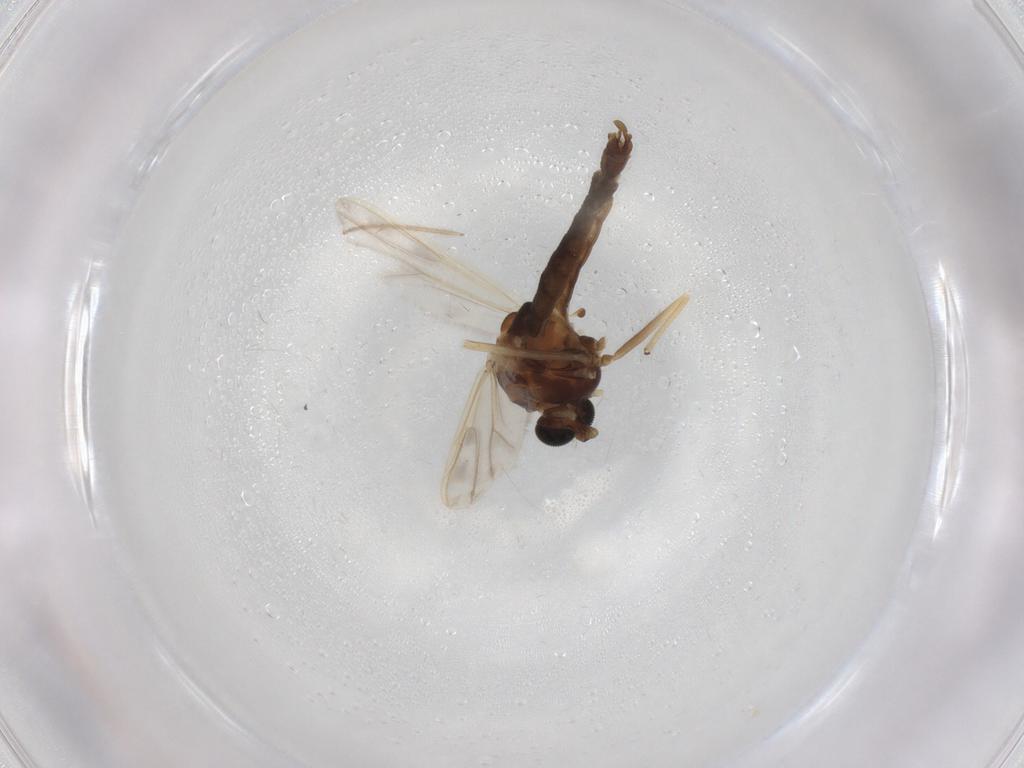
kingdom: Animalia
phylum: Arthropoda
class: Insecta
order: Diptera
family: Chironomidae
